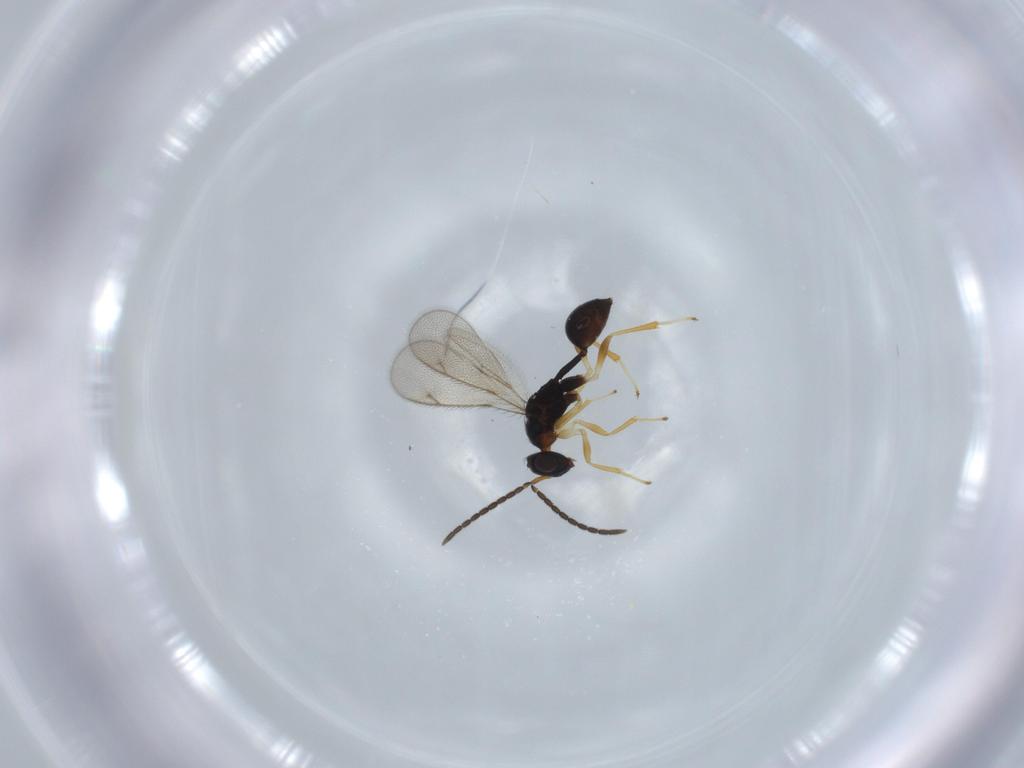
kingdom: Animalia
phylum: Arthropoda
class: Insecta
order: Hymenoptera
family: Diparidae
